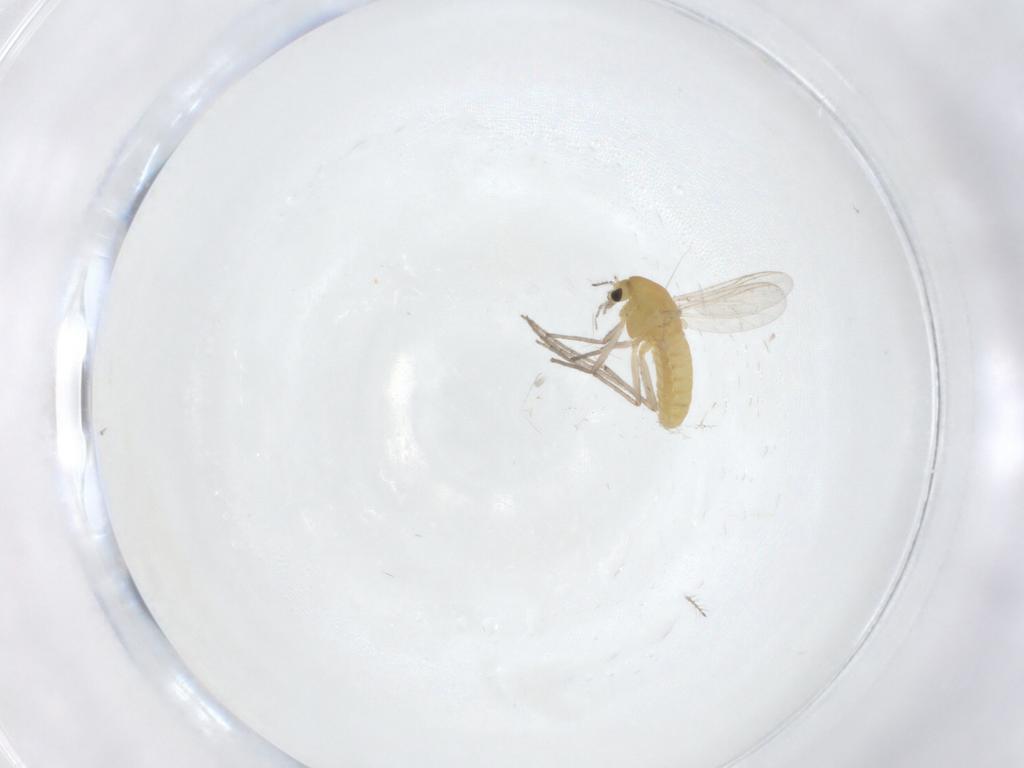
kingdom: Animalia
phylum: Arthropoda
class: Insecta
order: Diptera
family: Chironomidae
